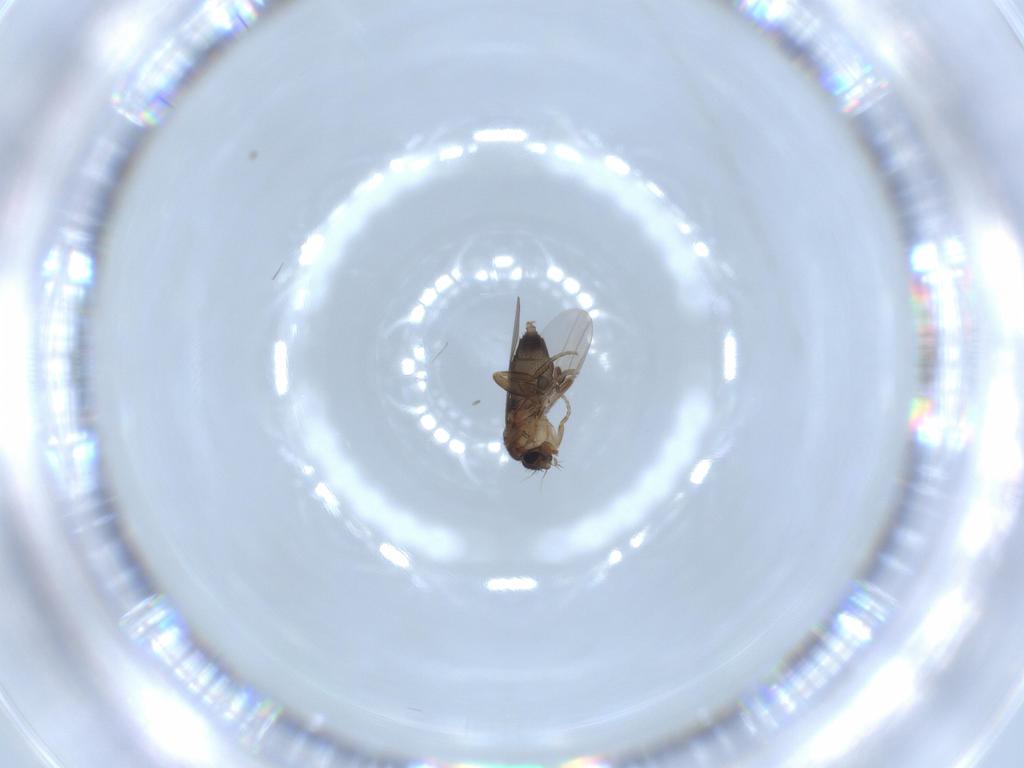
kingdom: Animalia
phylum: Arthropoda
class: Insecta
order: Diptera
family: Phoridae
